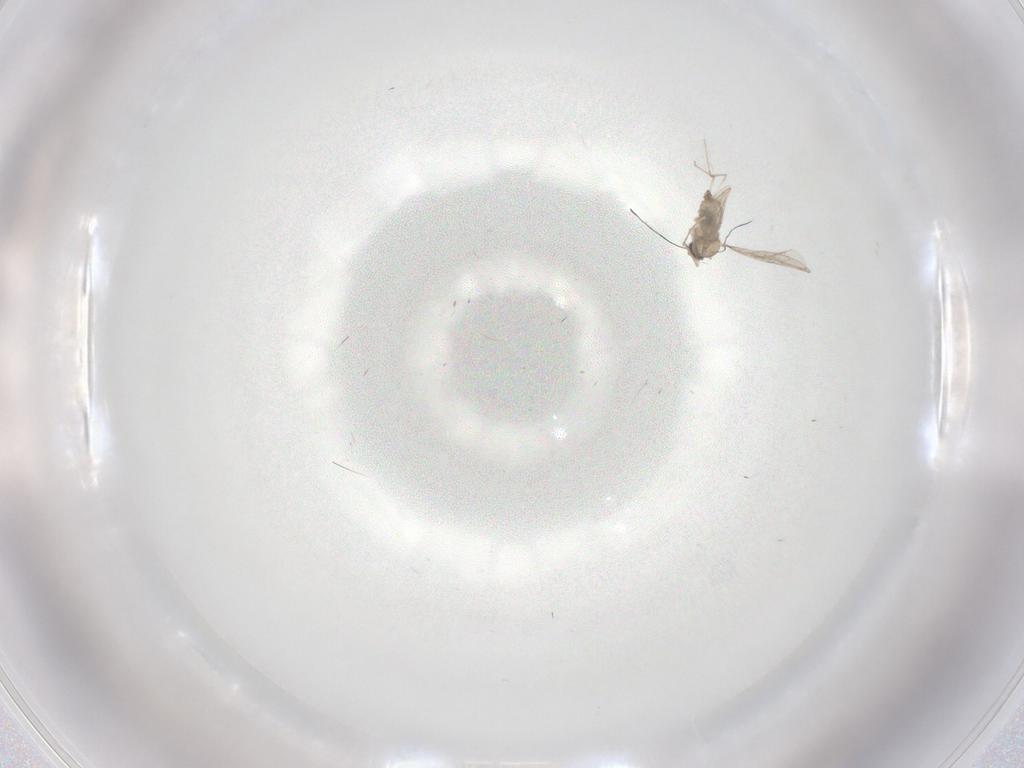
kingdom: Animalia
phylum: Arthropoda
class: Insecta
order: Diptera
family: Cecidomyiidae
